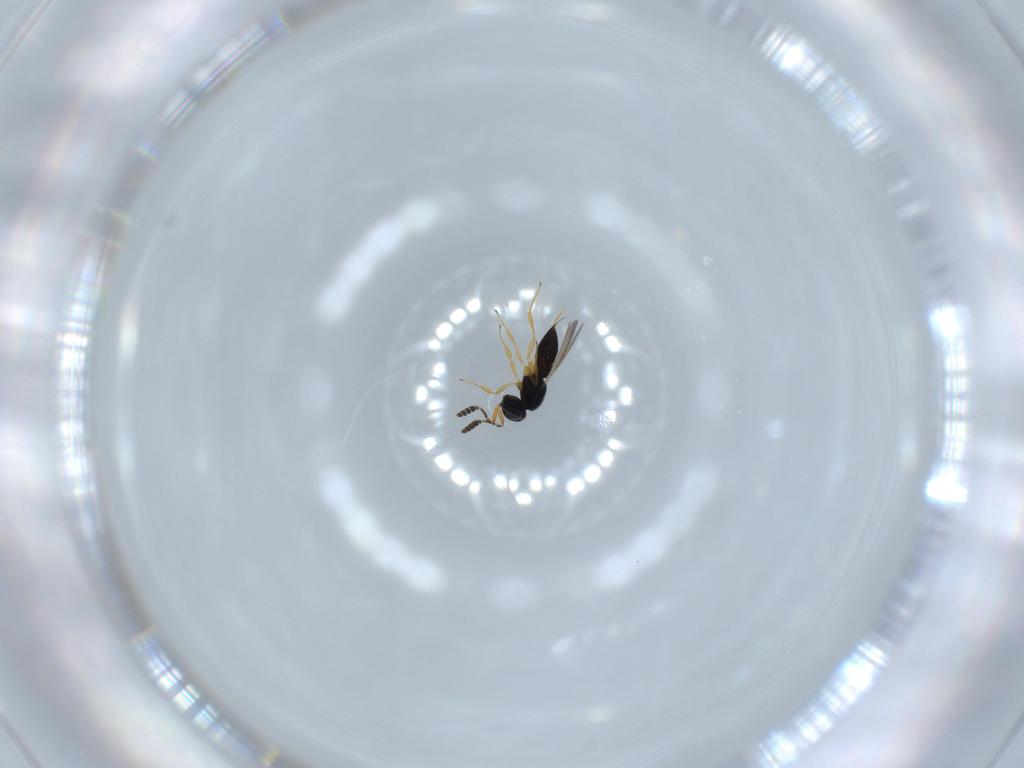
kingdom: Animalia
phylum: Arthropoda
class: Insecta
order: Hymenoptera
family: Scelionidae
